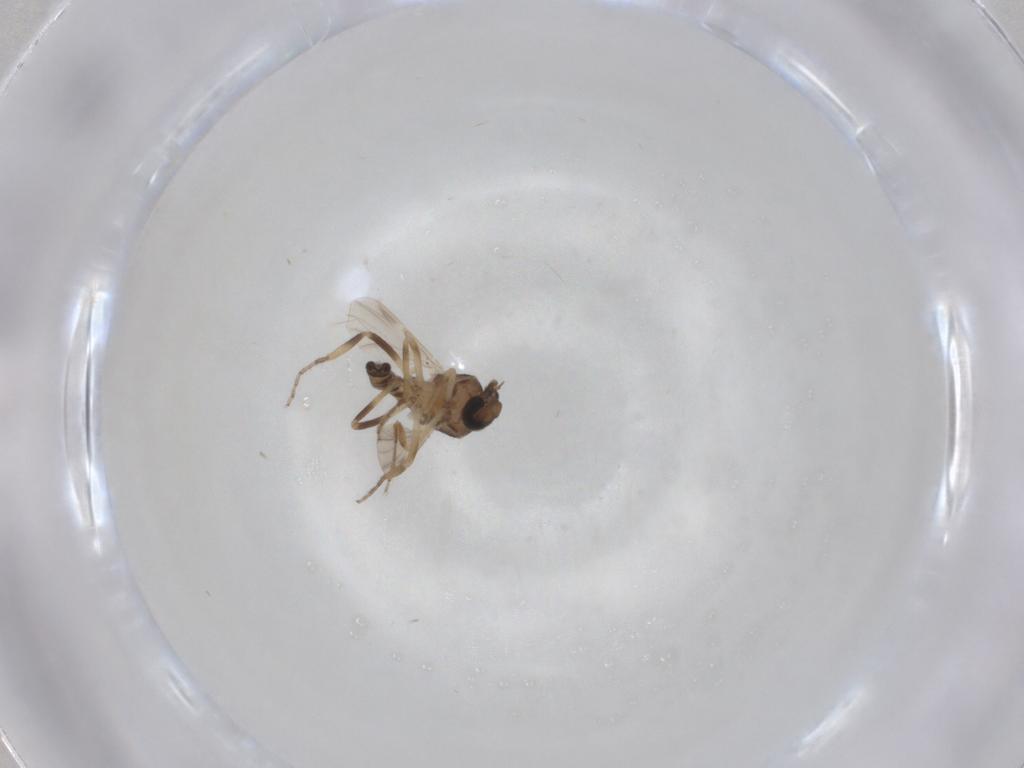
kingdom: Animalia
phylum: Arthropoda
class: Insecta
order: Diptera
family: Ceratopogonidae
